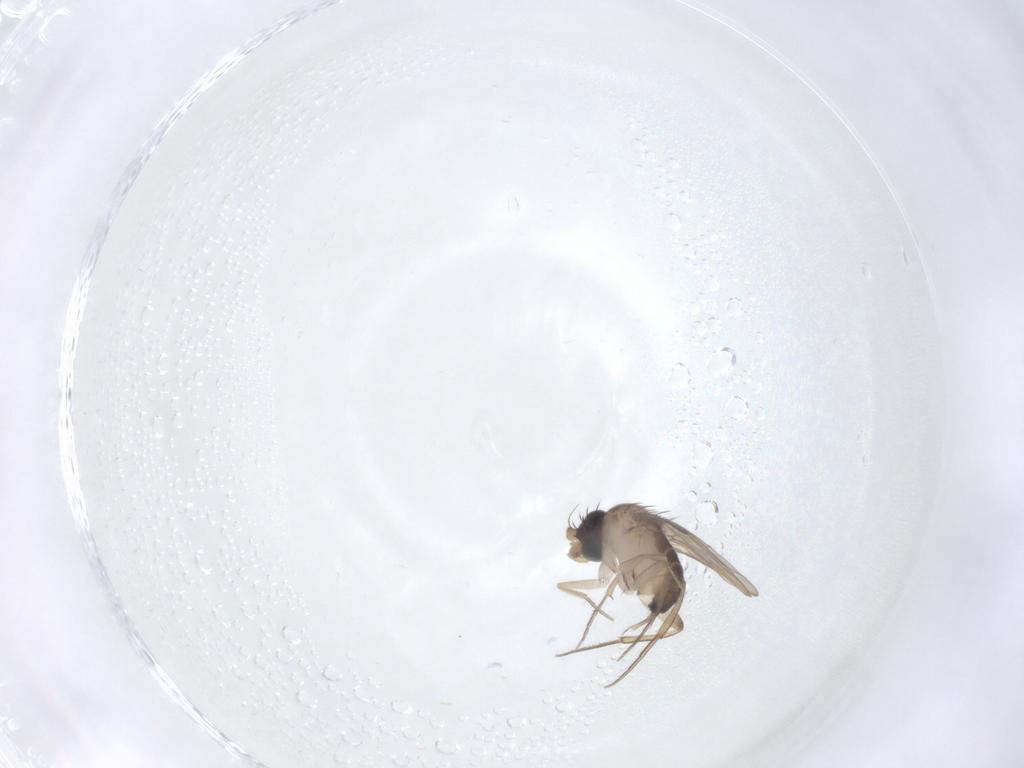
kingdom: Animalia
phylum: Arthropoda
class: Insecta
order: Diptera
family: Phoridae
